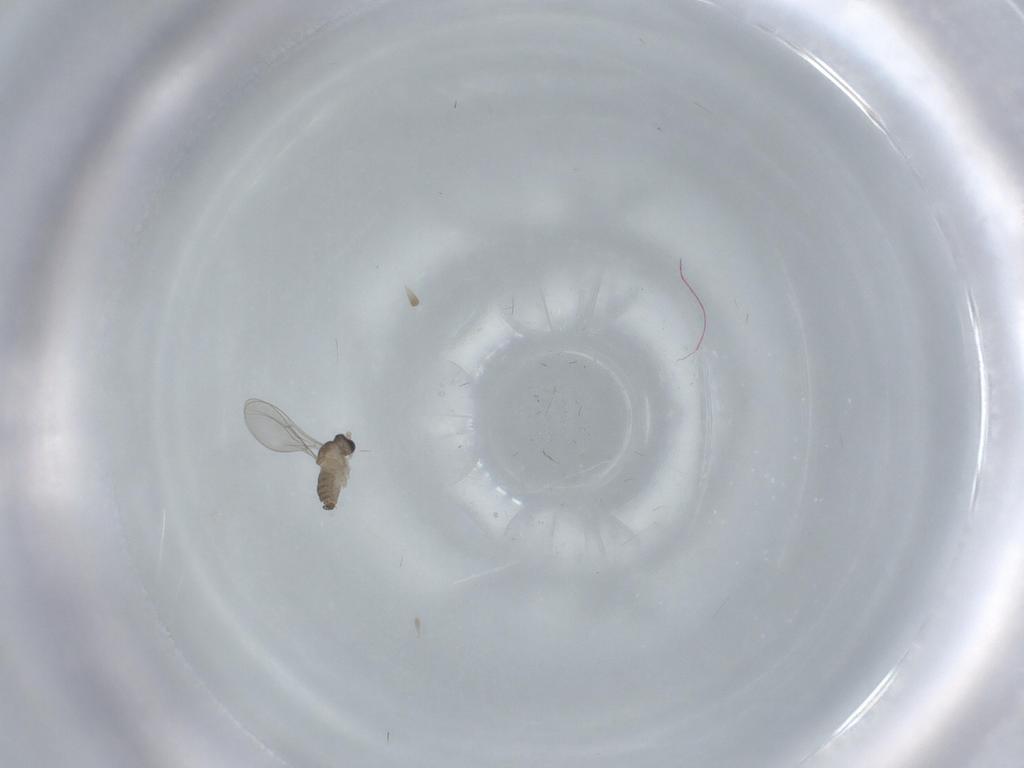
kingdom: Animalia
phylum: Arthropoda
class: Insecta
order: Diptera
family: Cecidomyiidae
